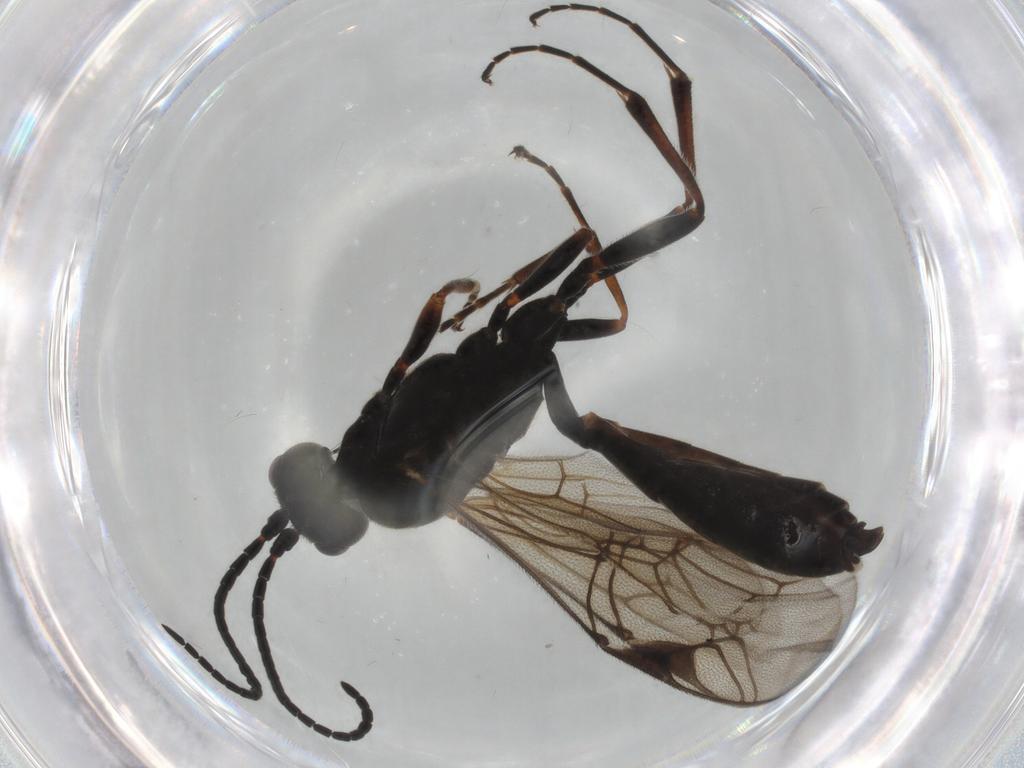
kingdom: Animalia
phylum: Arthropoda
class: Insecta
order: Hymenoptera
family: Ichneumonidae
